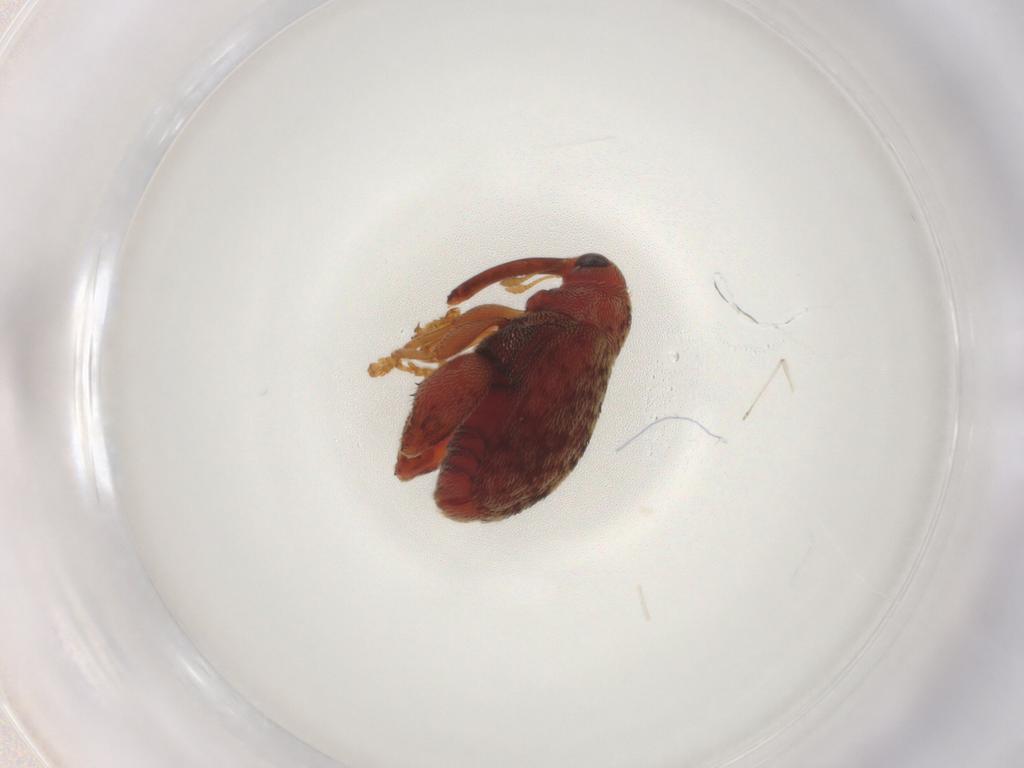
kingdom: Animalia
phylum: Arthropoda
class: Insecta
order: Coleoptera
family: Curculionidae
